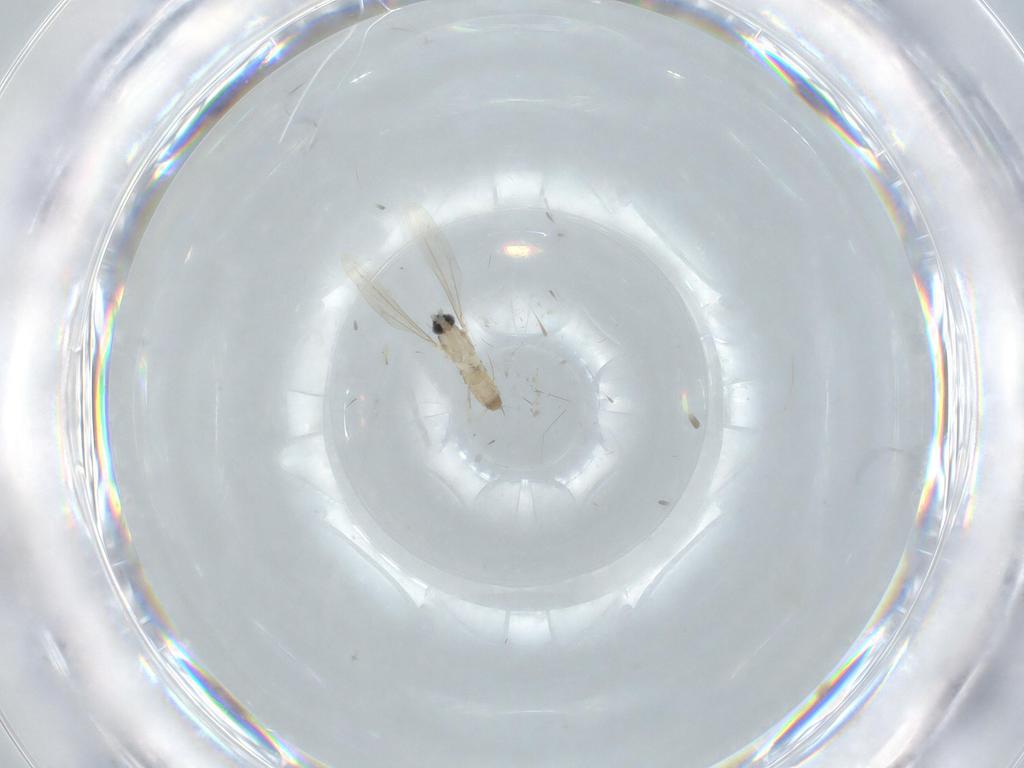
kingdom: Animalia
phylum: Arthropoda
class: Insecta
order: Diptera
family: Cecidomyiidae
